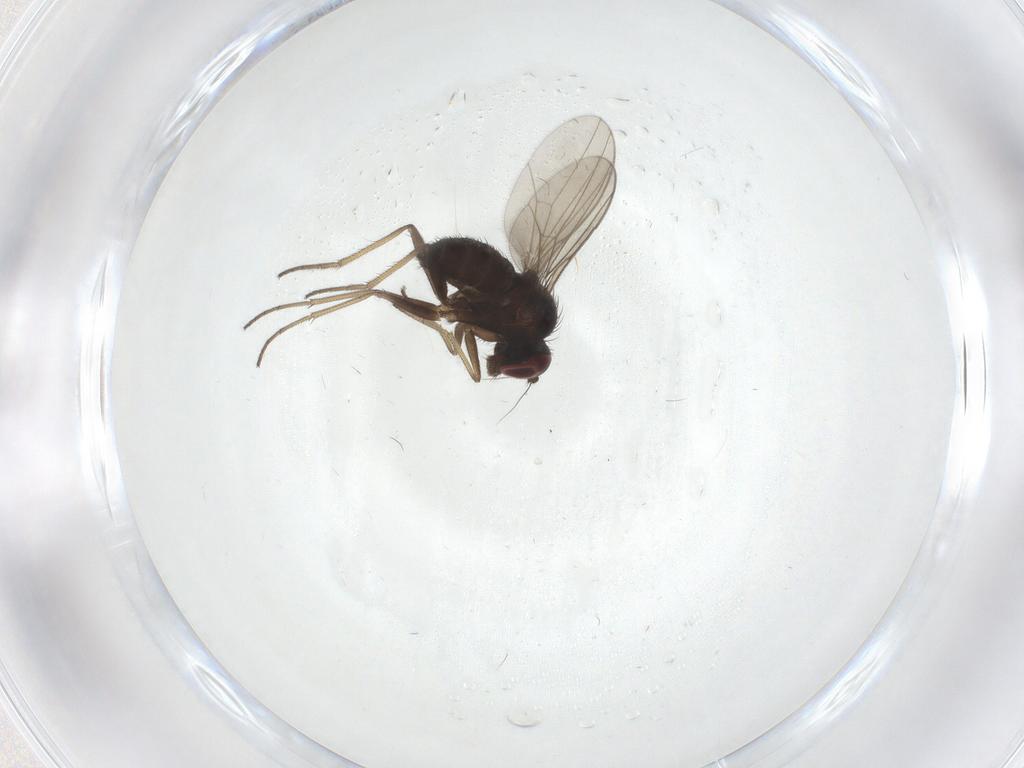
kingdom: Animalia
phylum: Arthropoda
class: Insecta
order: Diptera
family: Dolichopodidae
